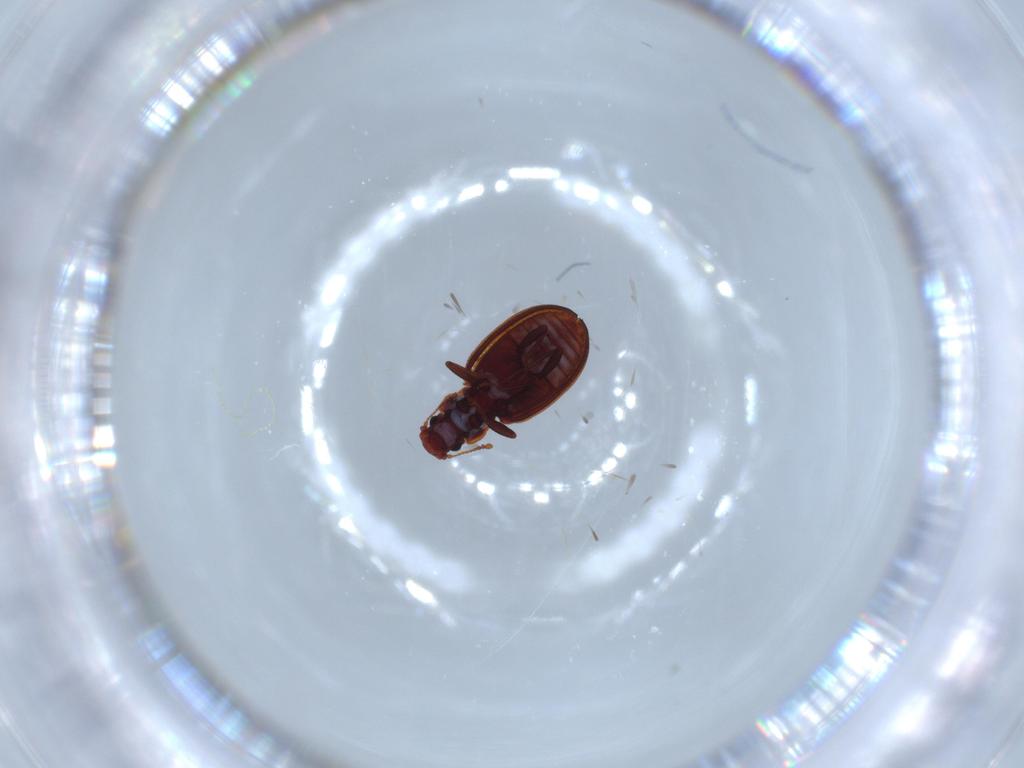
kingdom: Animalia
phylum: Arthropoda
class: Insecta
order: Coleoptera
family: Latridiidae
